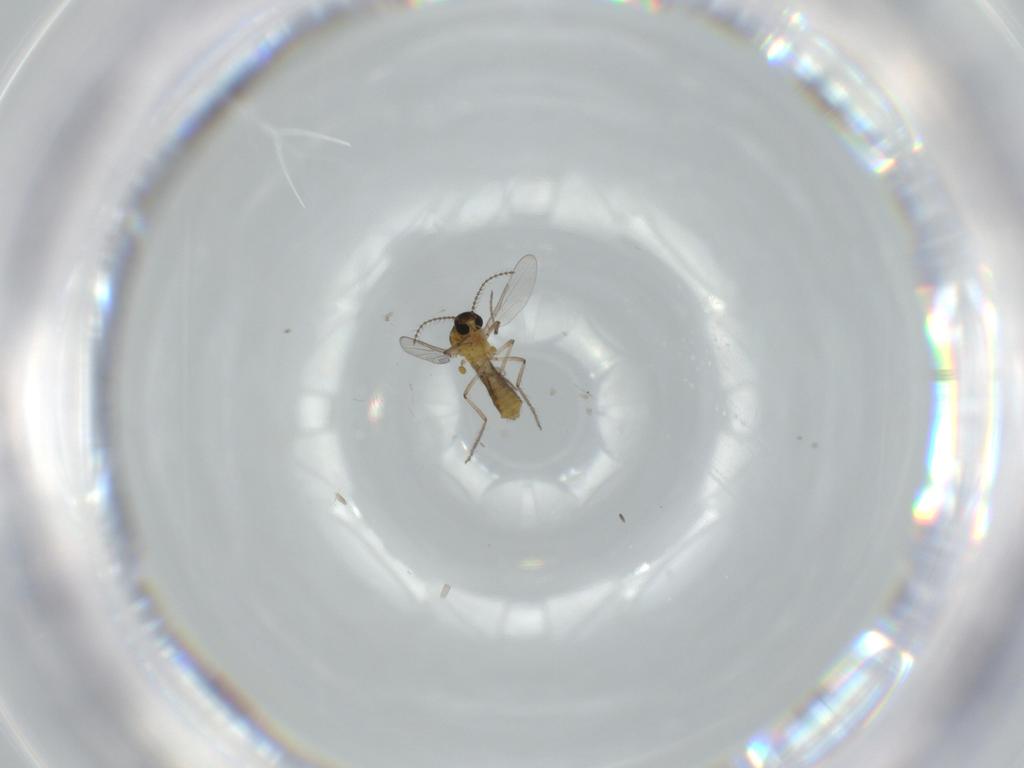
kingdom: Animalia
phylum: Arthropoda
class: Insecta
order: Diptera
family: Ceratopogonidae
